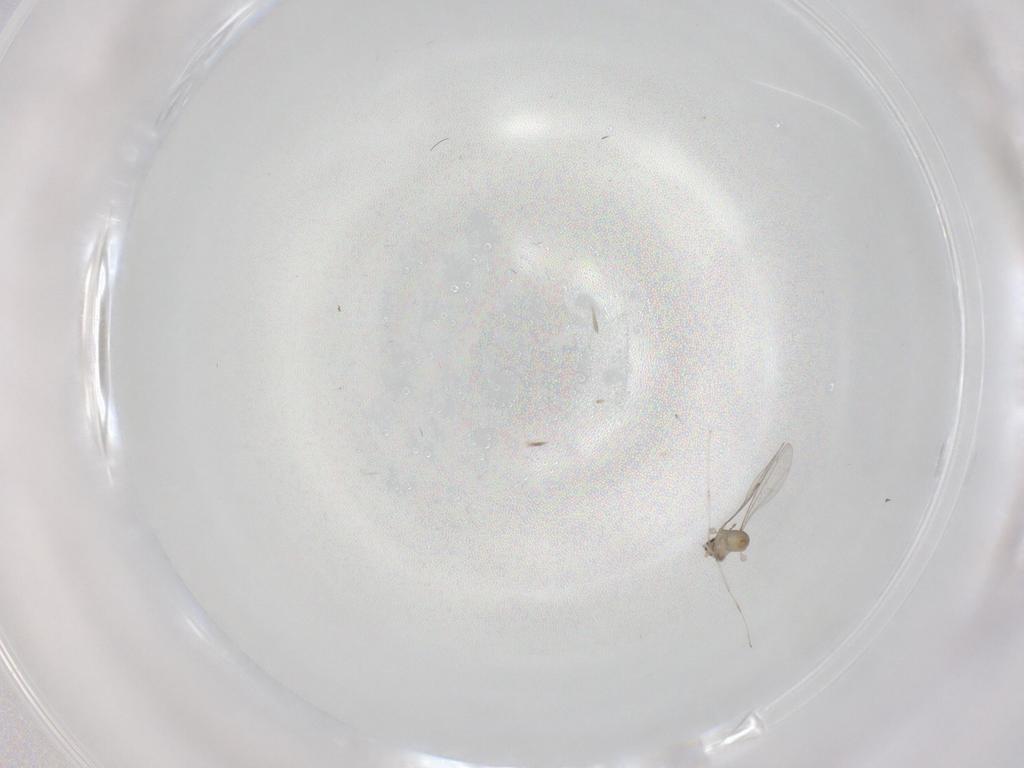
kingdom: Animalia
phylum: Arthropoda
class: Insecta
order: Diptera
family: Cecidomyiidae
